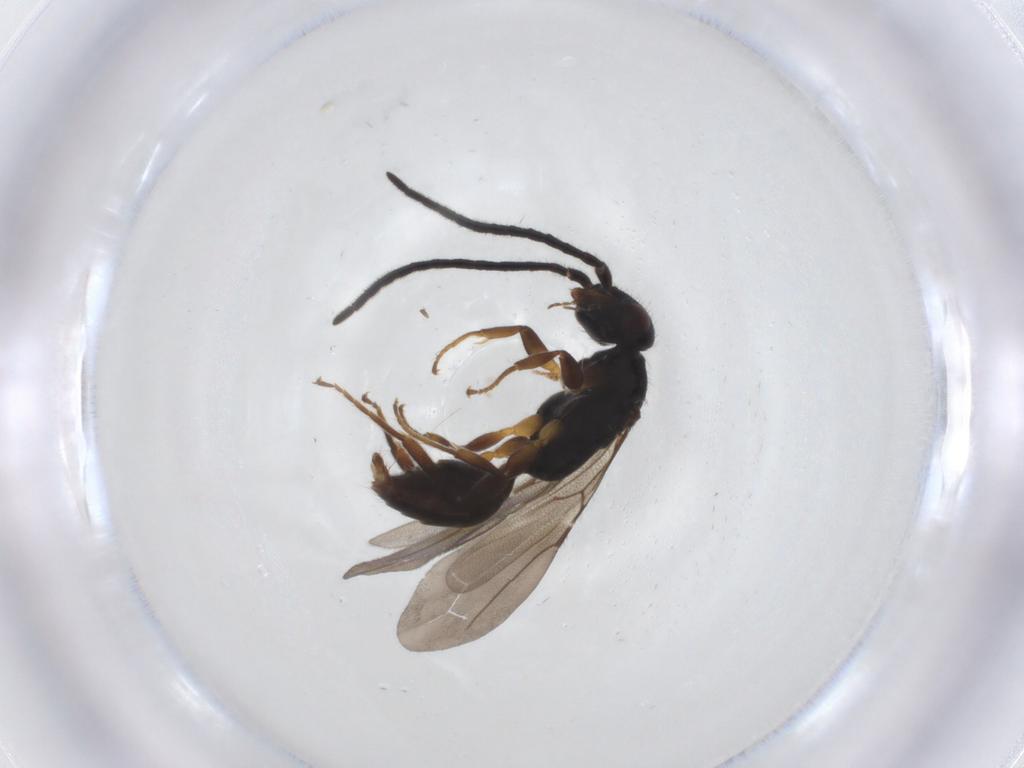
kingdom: Animalia
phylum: Arthropoda
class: Insecta
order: Hymenoptera
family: Bethylidae
